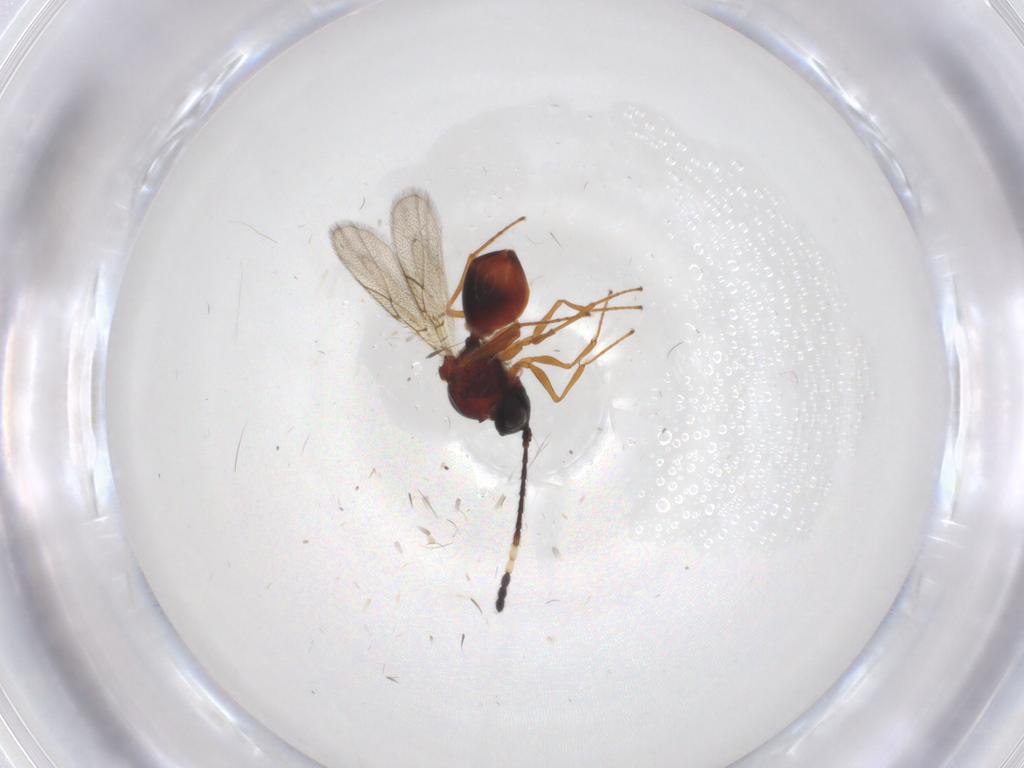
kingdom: Animalia
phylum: Arthropoda
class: Insecta
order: Hymenoptera
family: Figitidae
